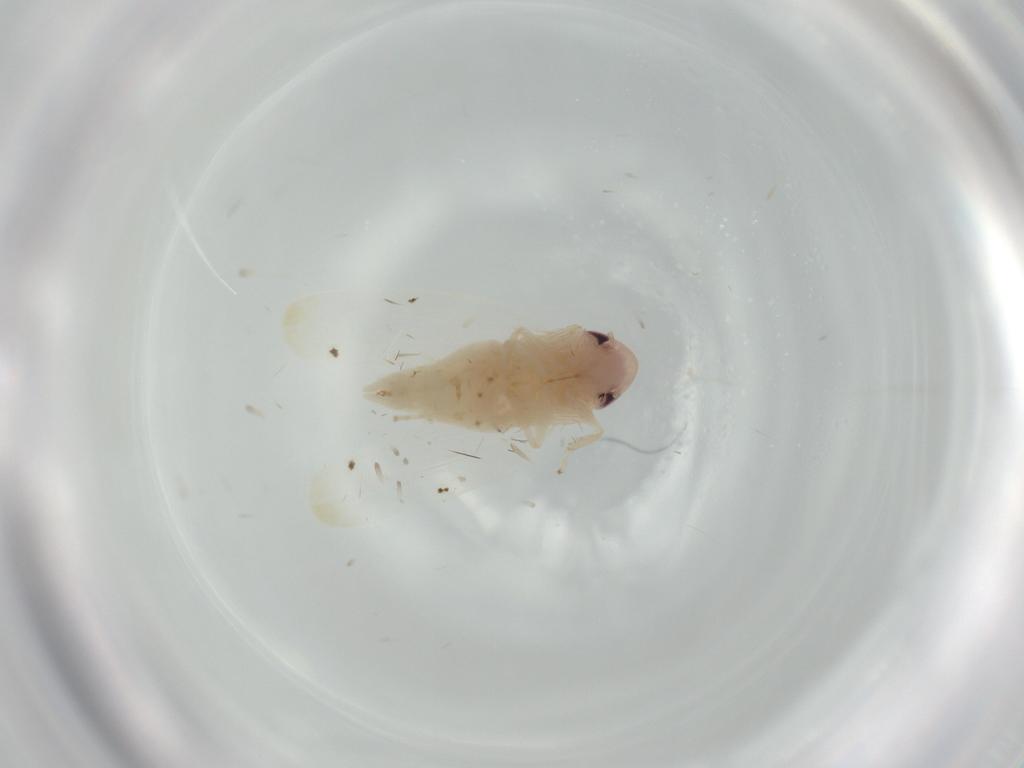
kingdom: Animalia
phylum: Arthropoda
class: Insecta
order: Hemiptera
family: Cicadellidae
